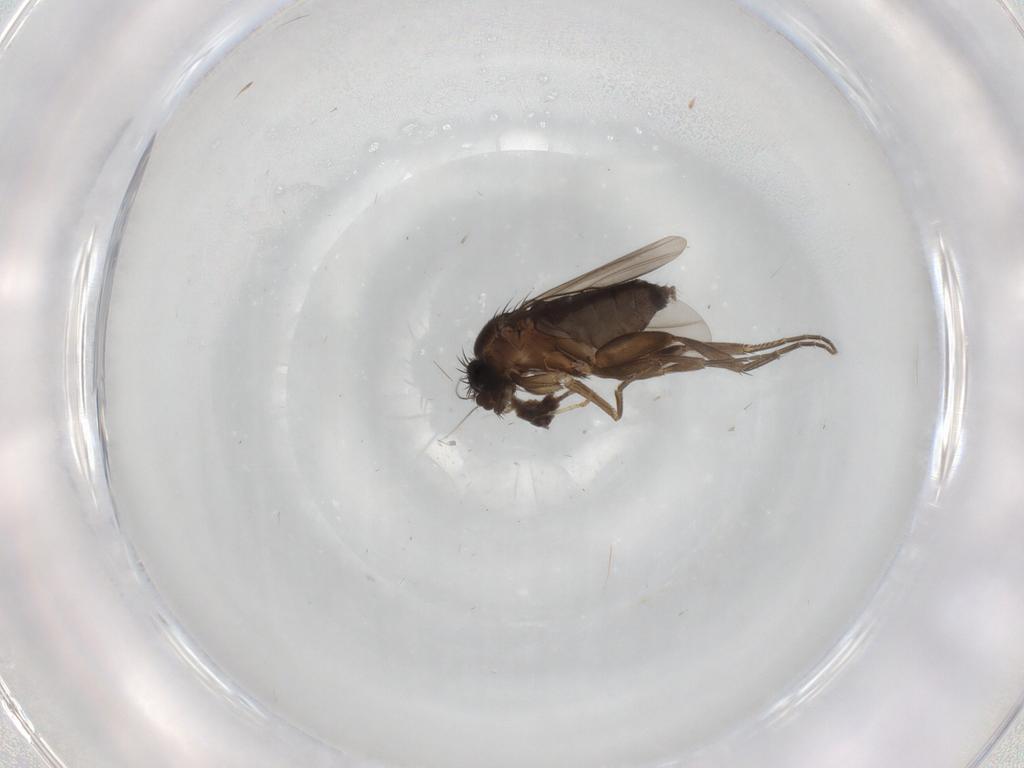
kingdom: Animalia
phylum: Arthropoda
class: Insecta
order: Diptera
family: Phoridae
